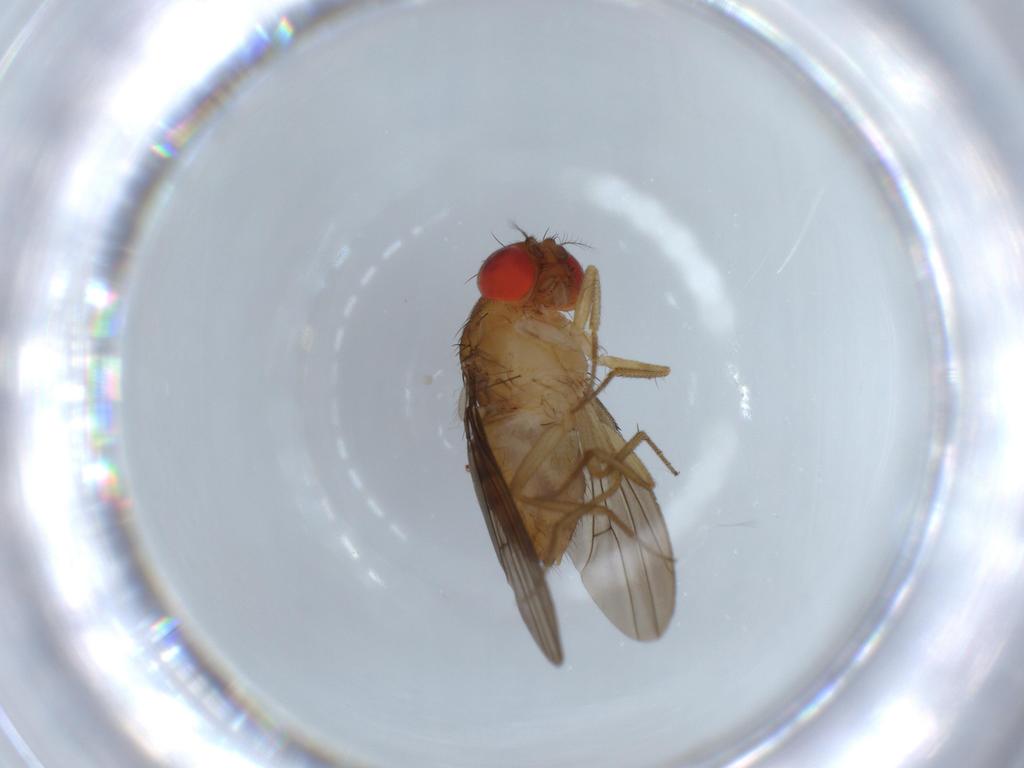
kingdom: Animalia
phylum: Arthropoda
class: Insecta
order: Diptera
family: Drosophilidae
